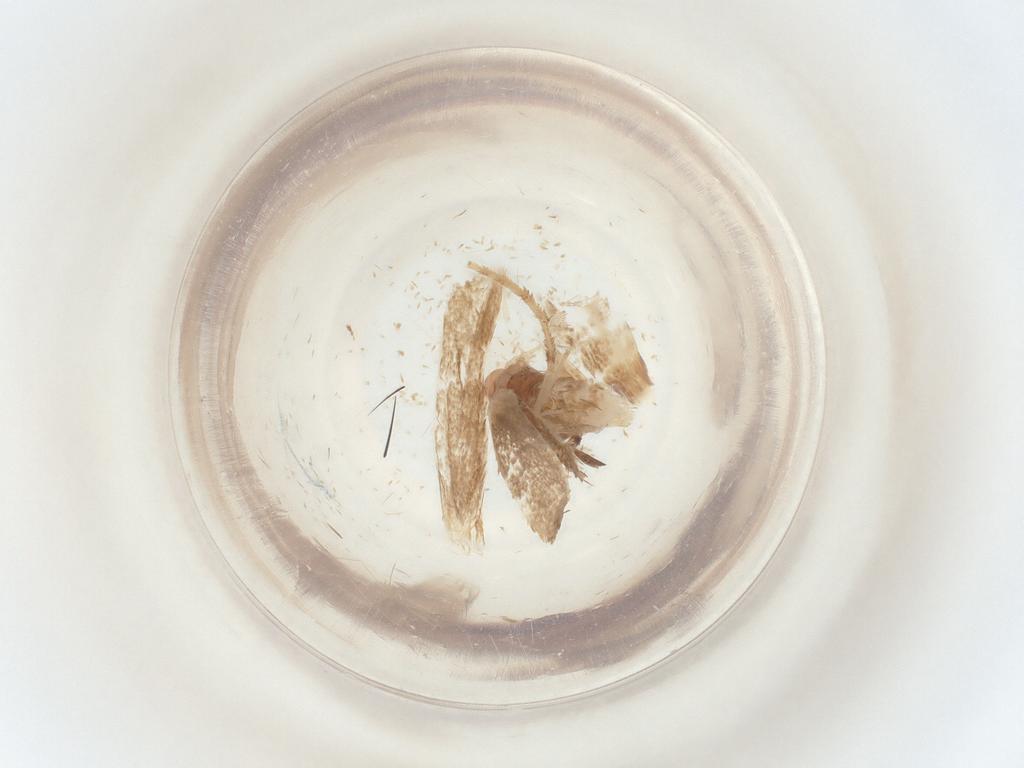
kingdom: Animalia
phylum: Arthropoda
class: Insecta
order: Lepidoptera
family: Gracillariidae
